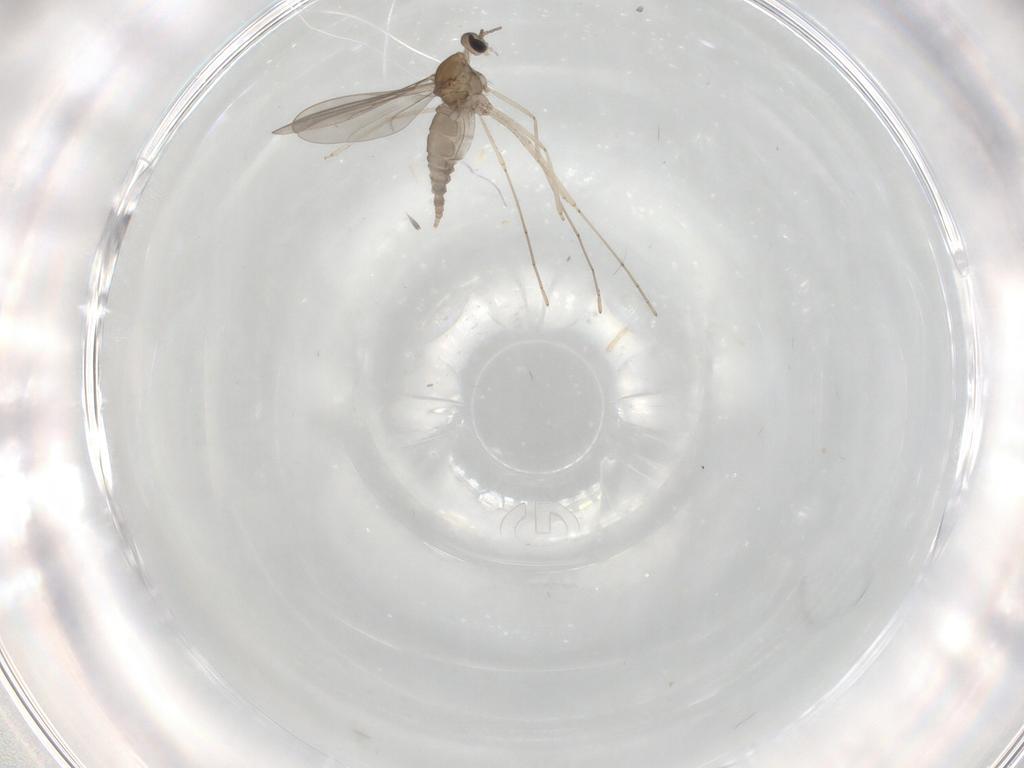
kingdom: Animalia
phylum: Arthropoda
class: Insecta
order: Diptera
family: Cecidomyiidae
